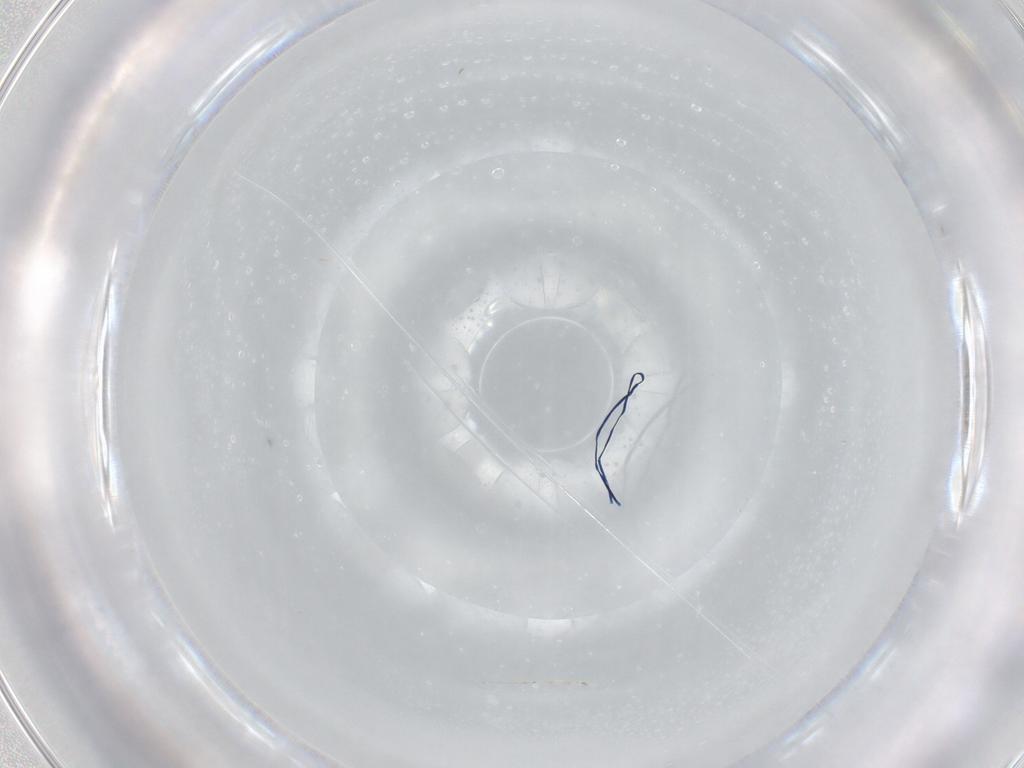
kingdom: Animalia
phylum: Arthropoda
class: Insecta
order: Diptera
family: Cecidomyiidae
